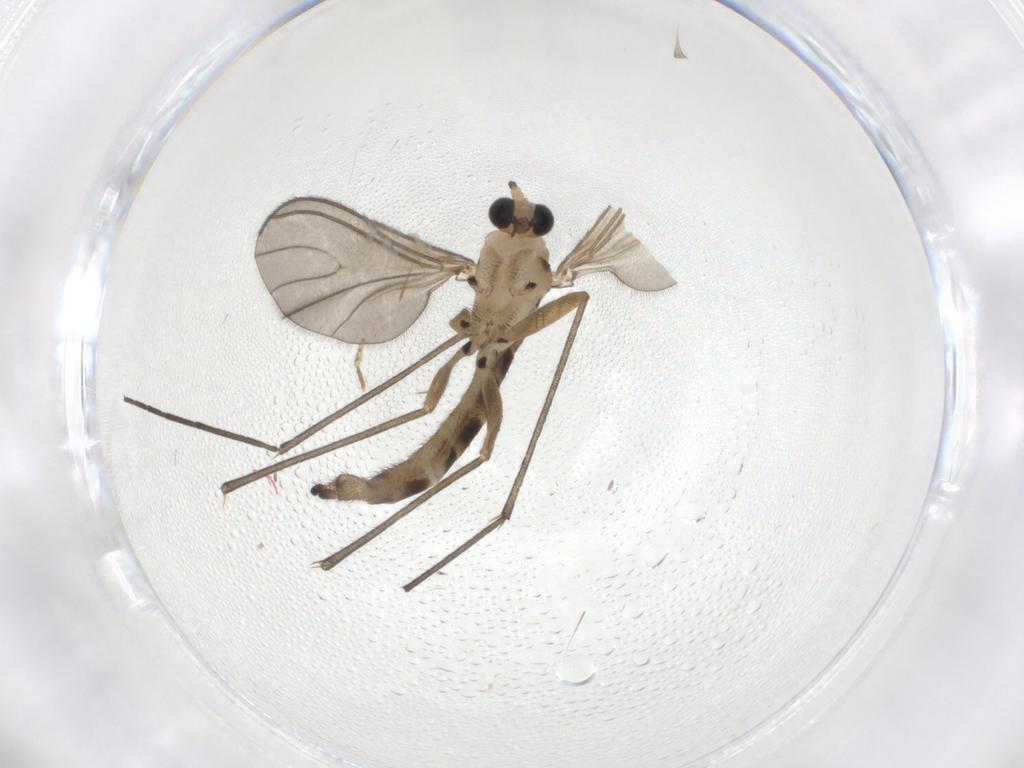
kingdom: Animalia
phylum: Arthropoda
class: Insecta
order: Diptera
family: Sciaridae
